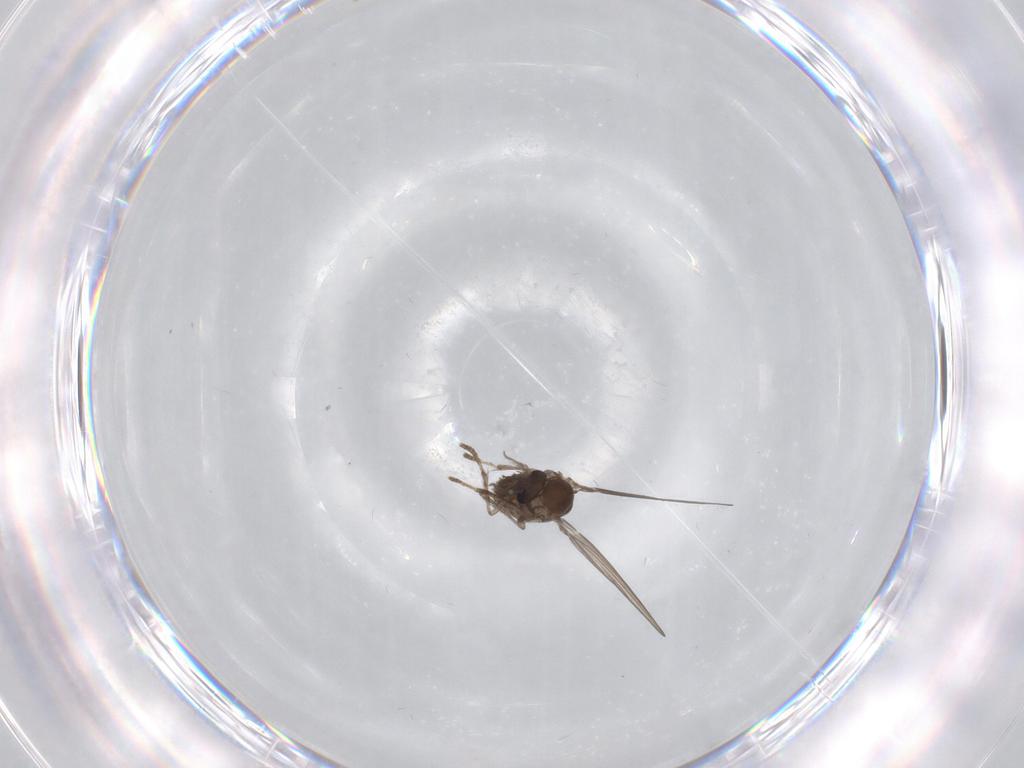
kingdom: Animalia
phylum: Arthropoda
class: Insecta
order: Diptera
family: Psychodidae
